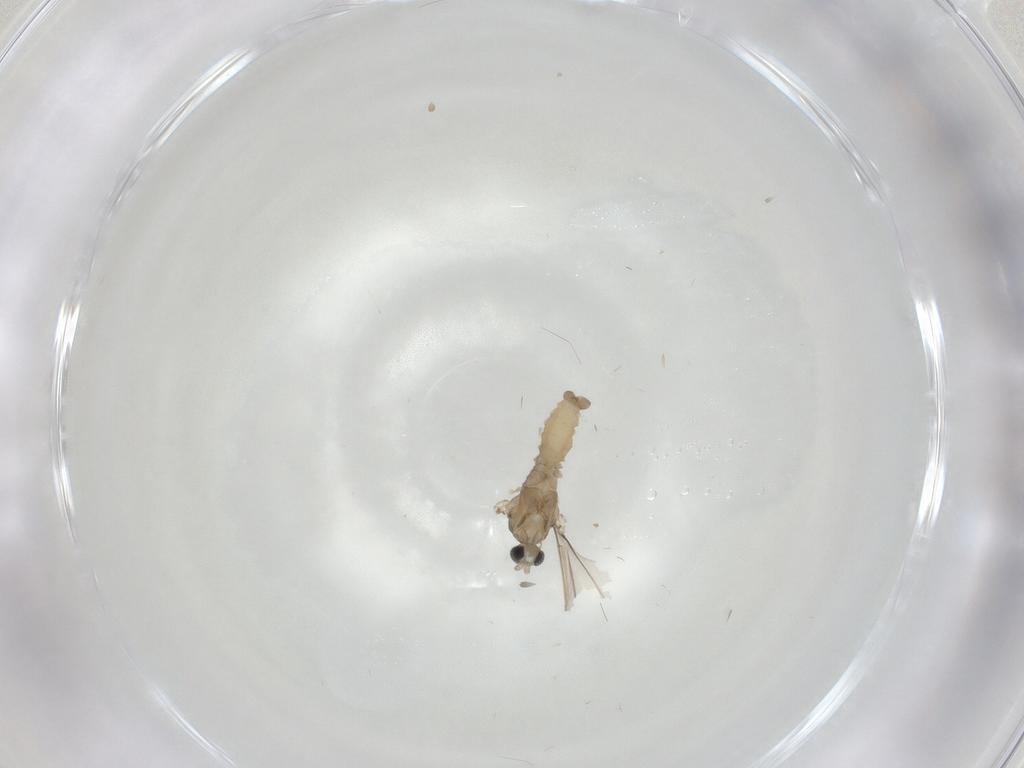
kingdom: Animalia
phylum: Arthropoda
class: Insecta
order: Diptera
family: Cecidomyiidae
